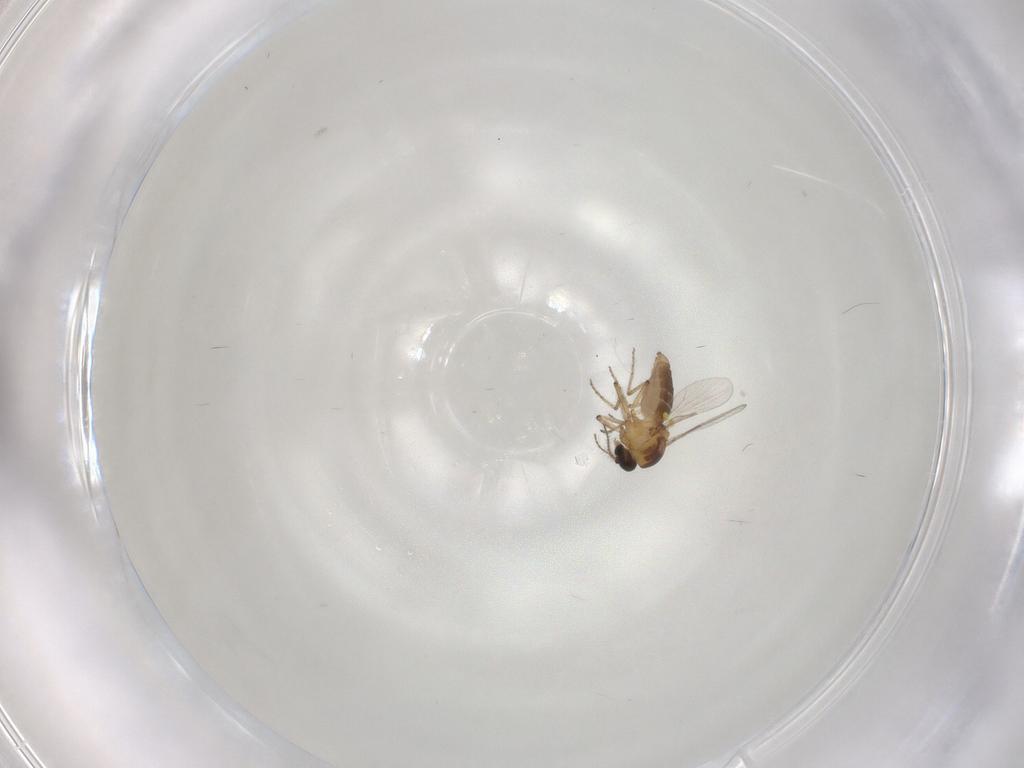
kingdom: Animalia
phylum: Arthropoda
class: Insecta
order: Diptera
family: Ceratopogonidae
